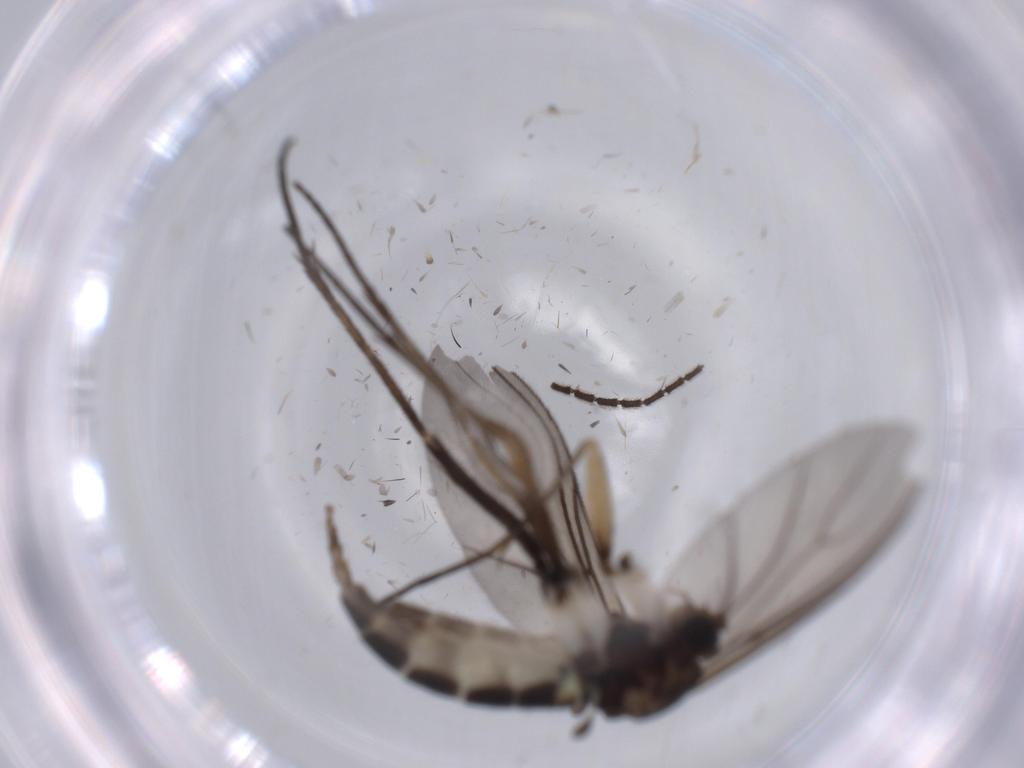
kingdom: Animalia
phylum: Arthropoda
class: Insecta
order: Diptera
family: Sciaridae
